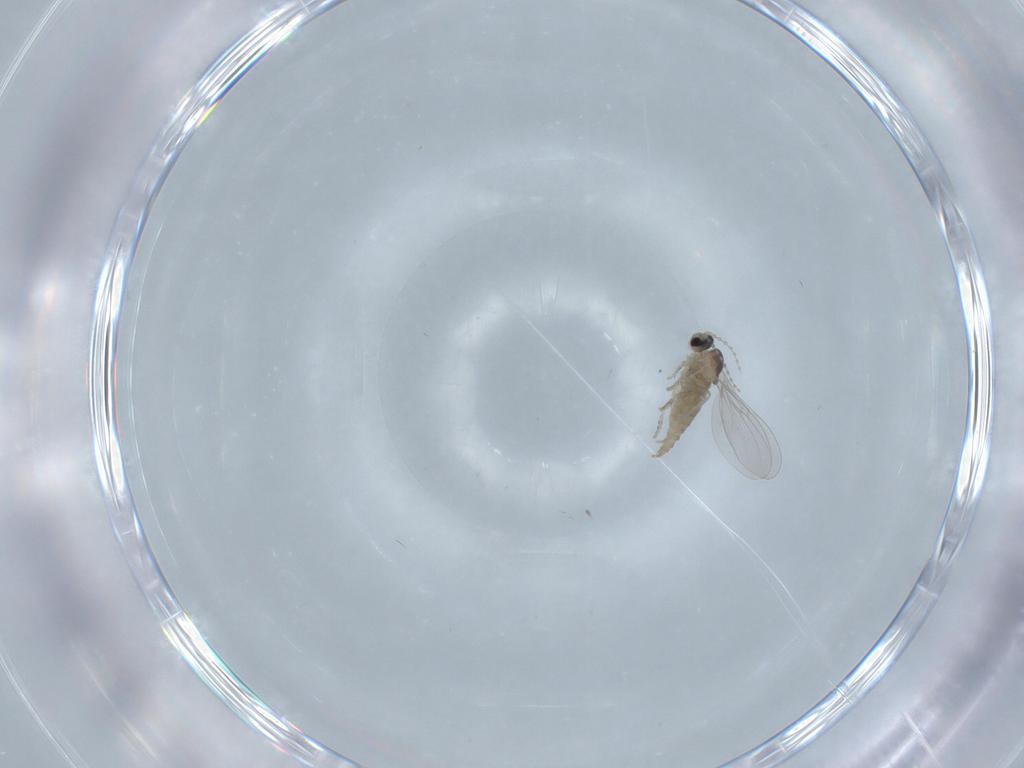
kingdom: Animalia
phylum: Arthropoda
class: Insecta
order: Diptera
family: Cecidomyiidae
